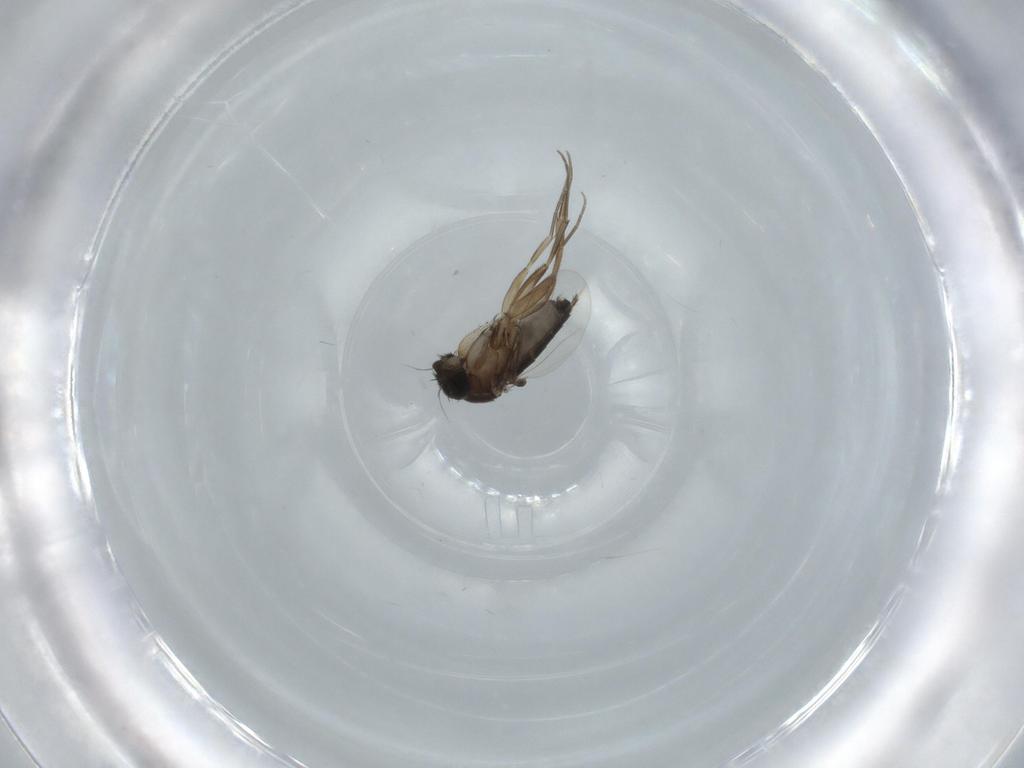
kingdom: Animalia
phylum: Arthropoda
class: Insecta
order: Diptera
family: Phoridae
